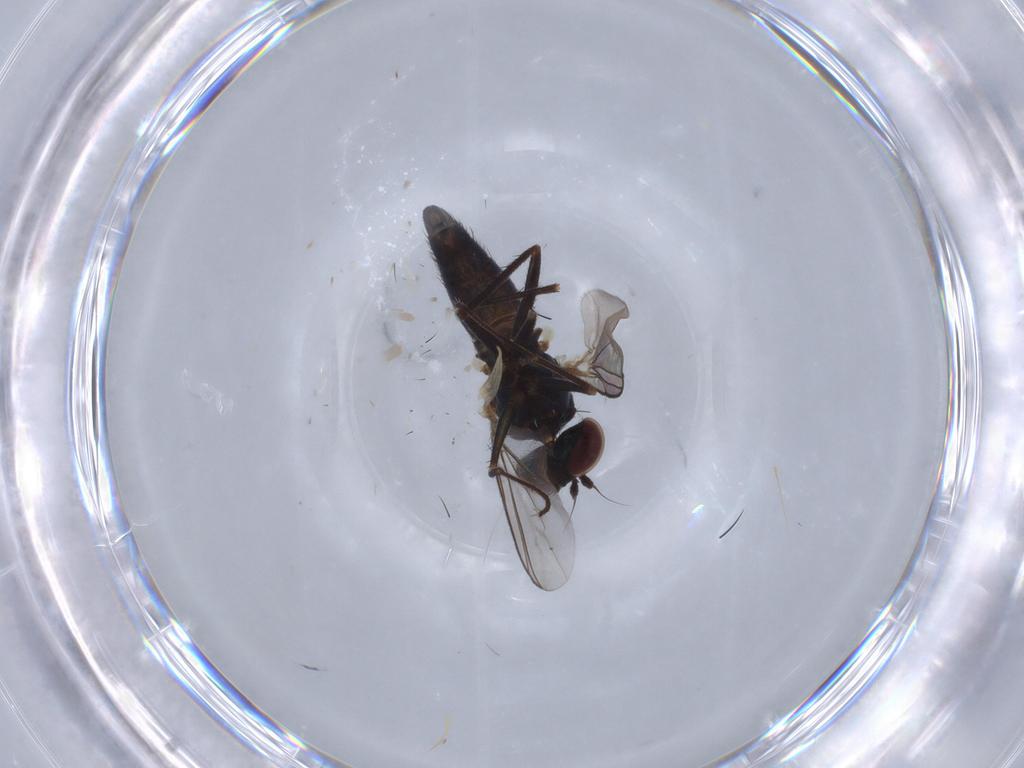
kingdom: Animalia
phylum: Arthropoda
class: Insecta
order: Diptera
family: Dolichopodidae
